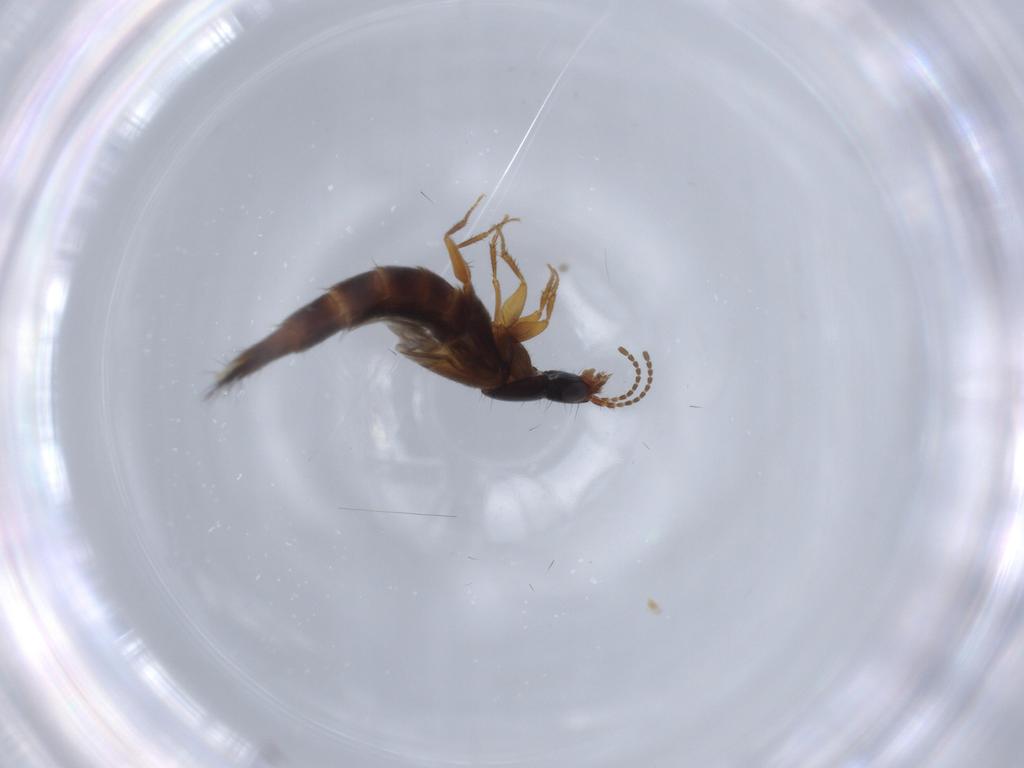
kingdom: Animalia
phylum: Arthropoda
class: Insecta
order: Coleoptera
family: Staphylinidae
